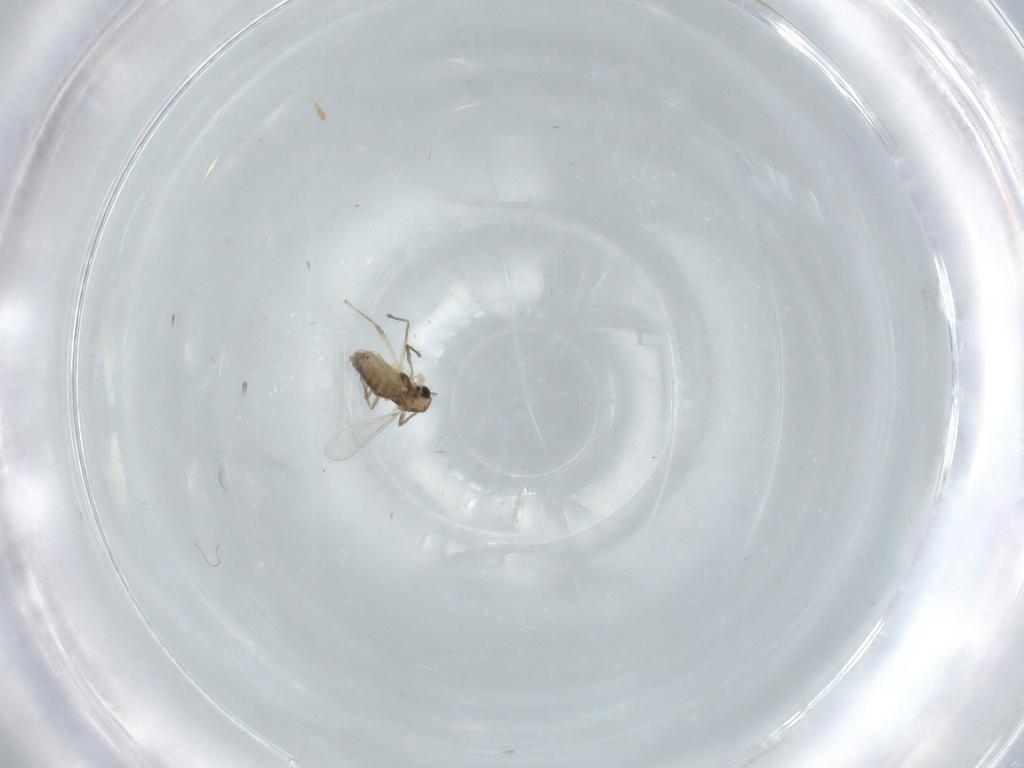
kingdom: Animalia
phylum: Arthropoda
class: Insecta
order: Diptera
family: Chironomidae
